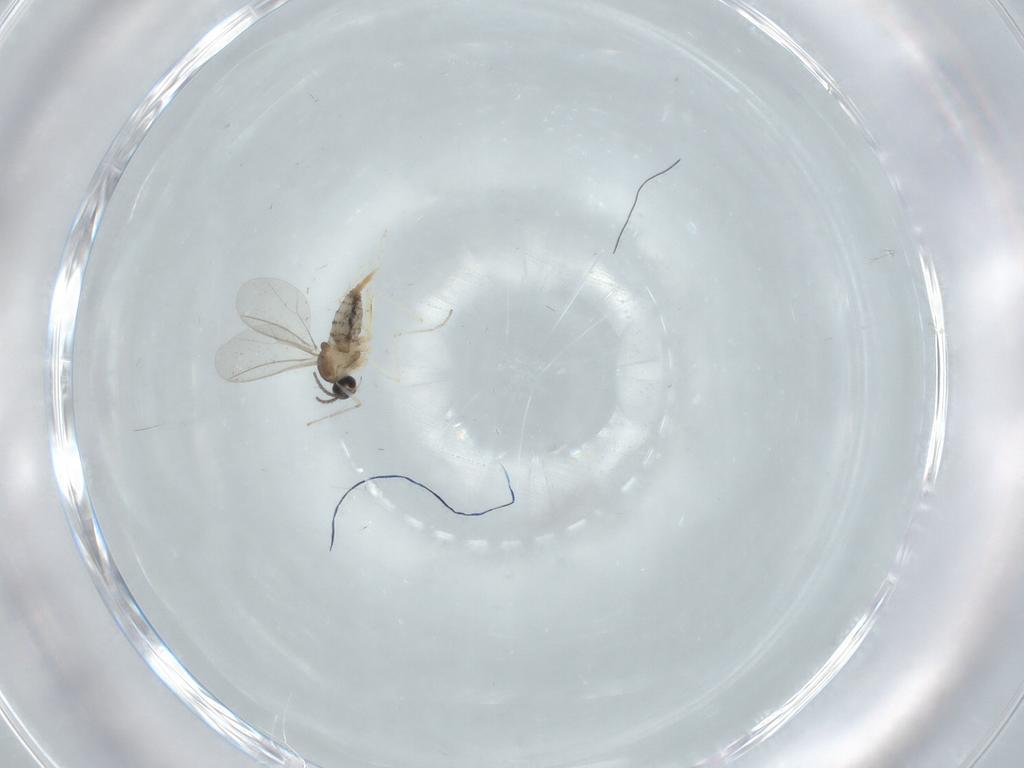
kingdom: Animalia
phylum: Arthropoda
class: Insecta
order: Diptera
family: Cecidomyiidae
